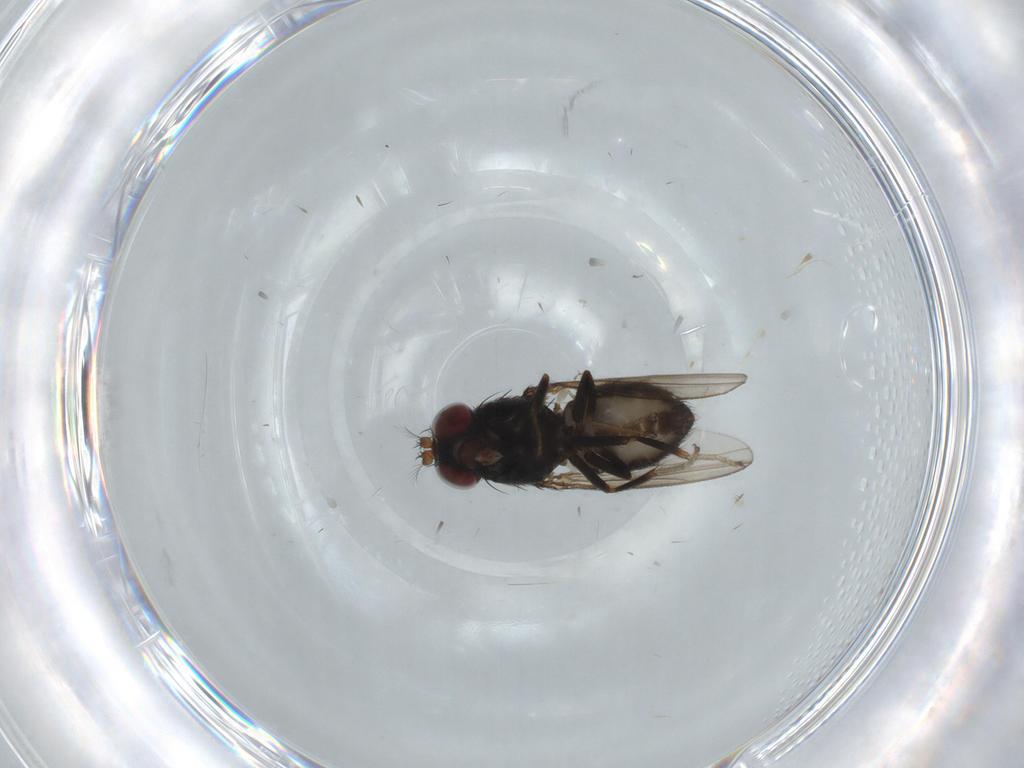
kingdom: Animalia
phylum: Arthropoda
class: Insecta
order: Diptera
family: Ephydridae
